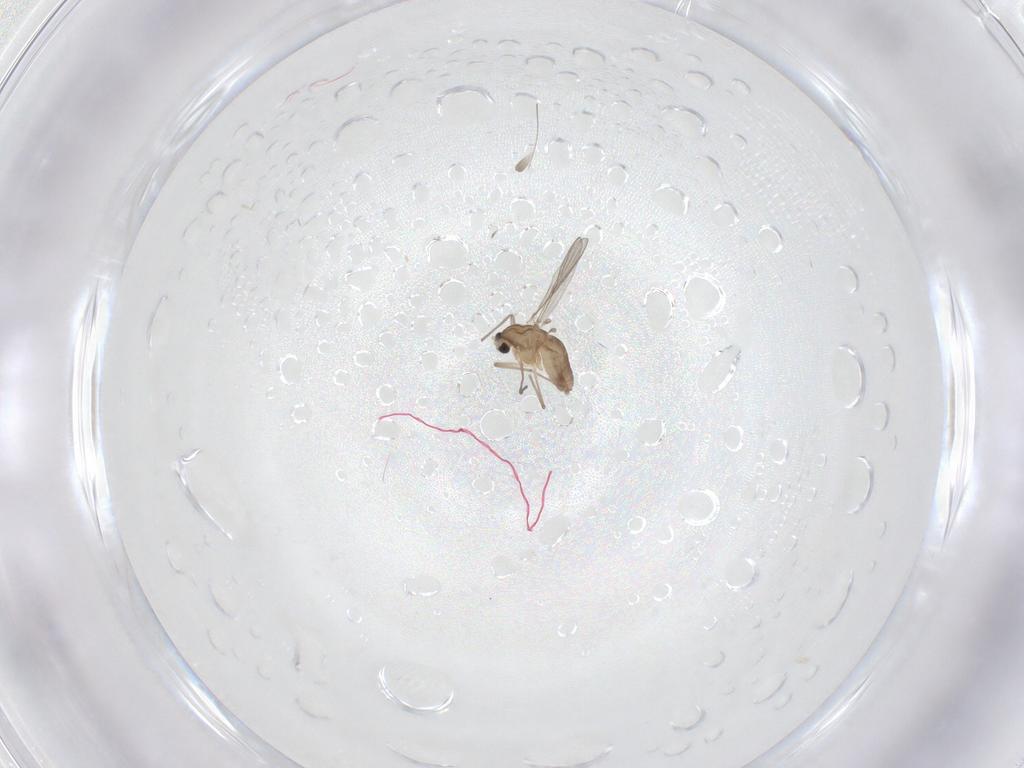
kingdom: Animalia
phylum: Arthropoda
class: Insecta
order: Diptera
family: Chironomidae
